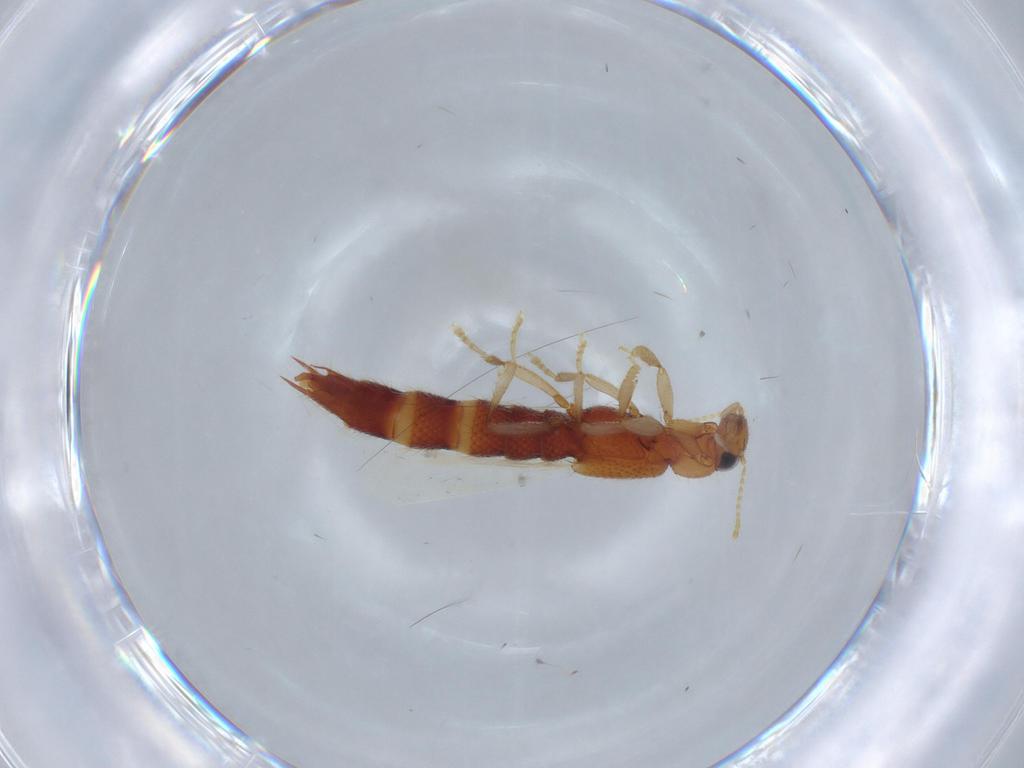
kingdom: Animalia
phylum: Arthropoda
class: Insecta
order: Coleoptera
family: Staphylinidae
